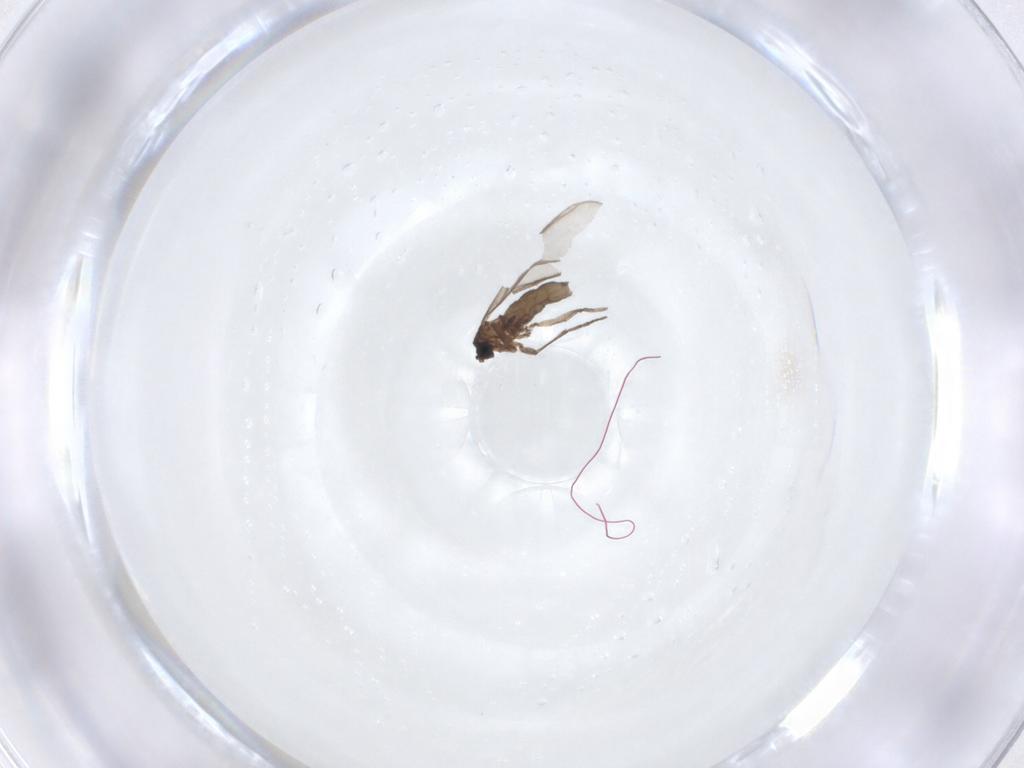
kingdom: Animalia
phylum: Arthropoda
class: Insecta
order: Diptera
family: Sciaridae
